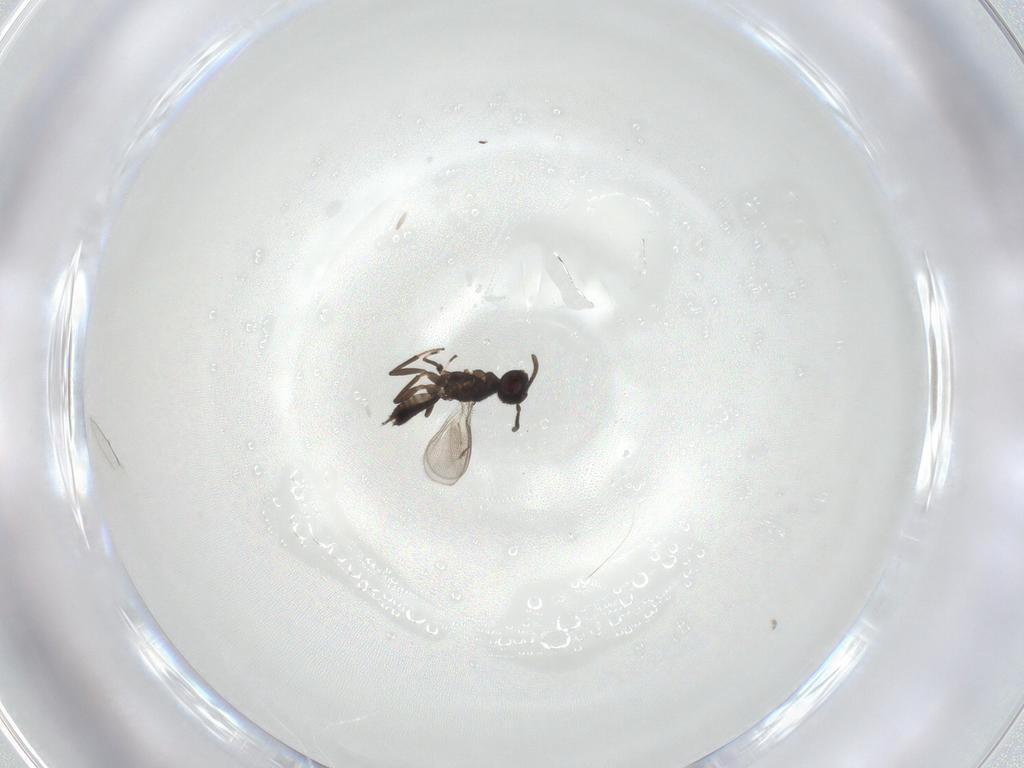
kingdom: Animalia
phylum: Arthropoda
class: Insecta
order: Hymenoptera
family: Eupelmidae
